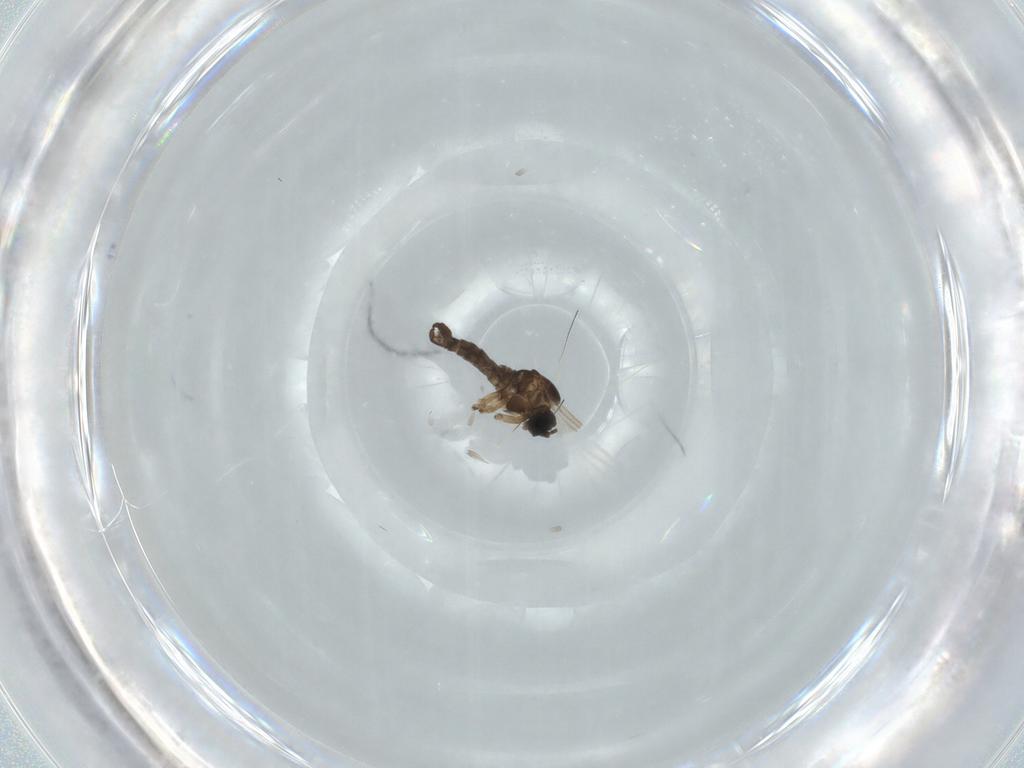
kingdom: Animalia
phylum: Arthropoda
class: Insecta
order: Diptera
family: Sciaridae
